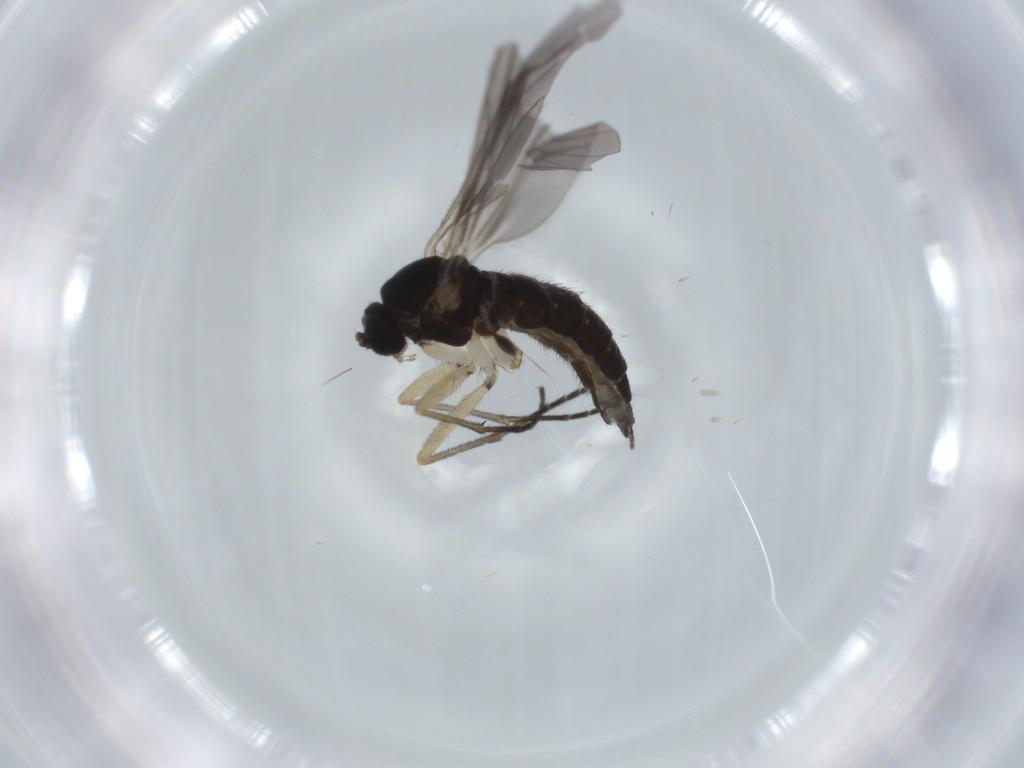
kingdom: Animalia
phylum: Arthropoda
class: Insecta
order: Diptera
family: Sciaridae
